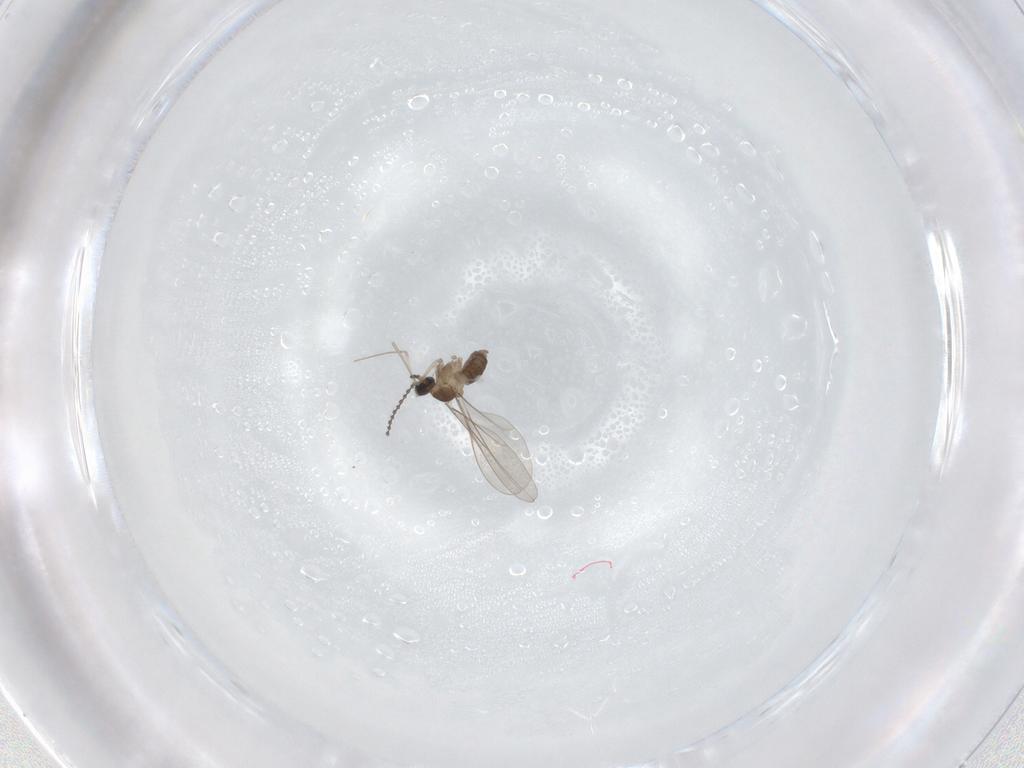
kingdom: Animalia
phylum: Arthropoda
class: Insecta
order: Diptera
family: Cecidomyiidae
